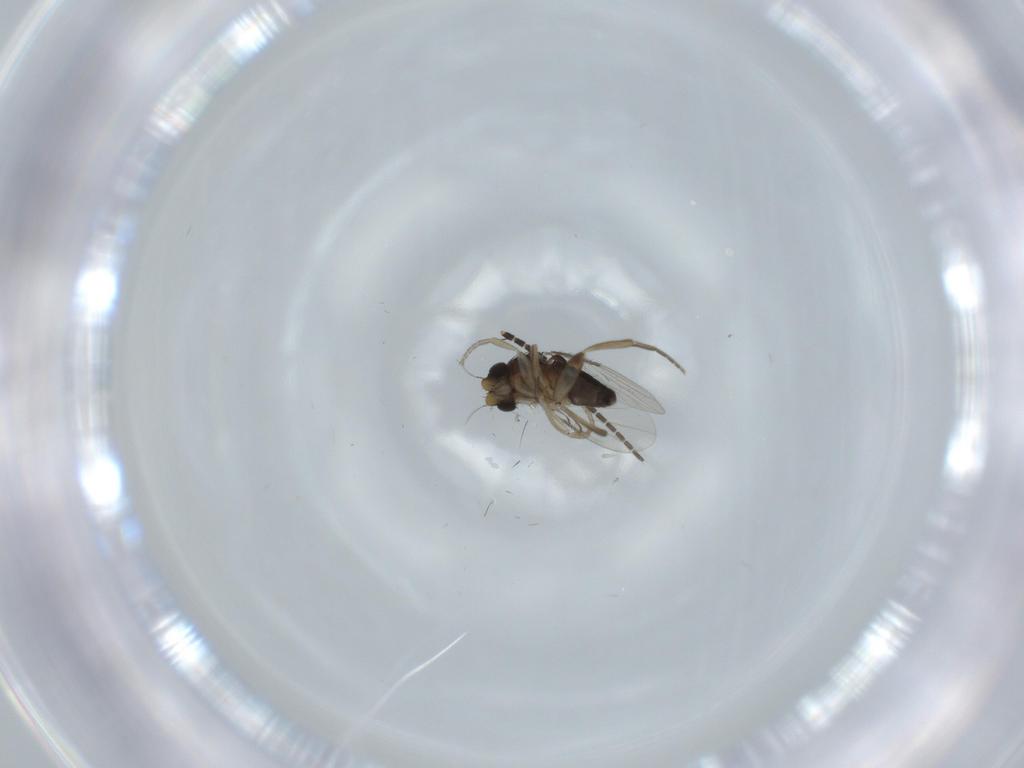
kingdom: Animalia
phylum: Arthropoda
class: Insecta
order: Diptera
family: Phoridae
